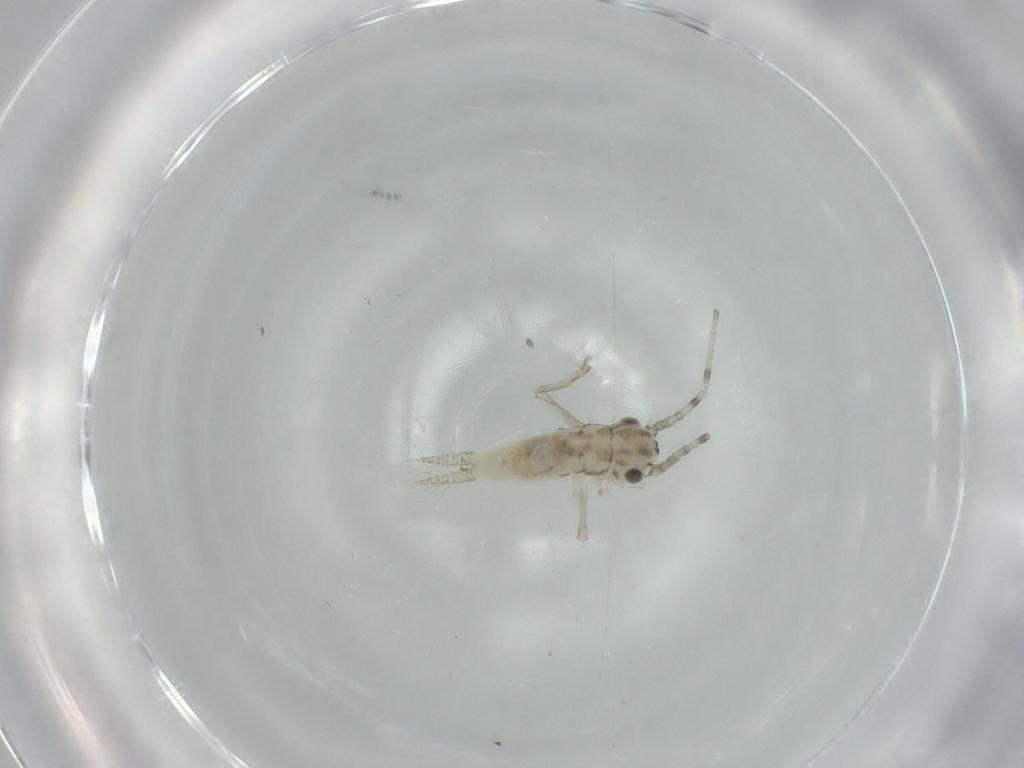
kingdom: Animalia
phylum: Arthropoda
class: Insecta
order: Orthoptera
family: Trigonidiidae
